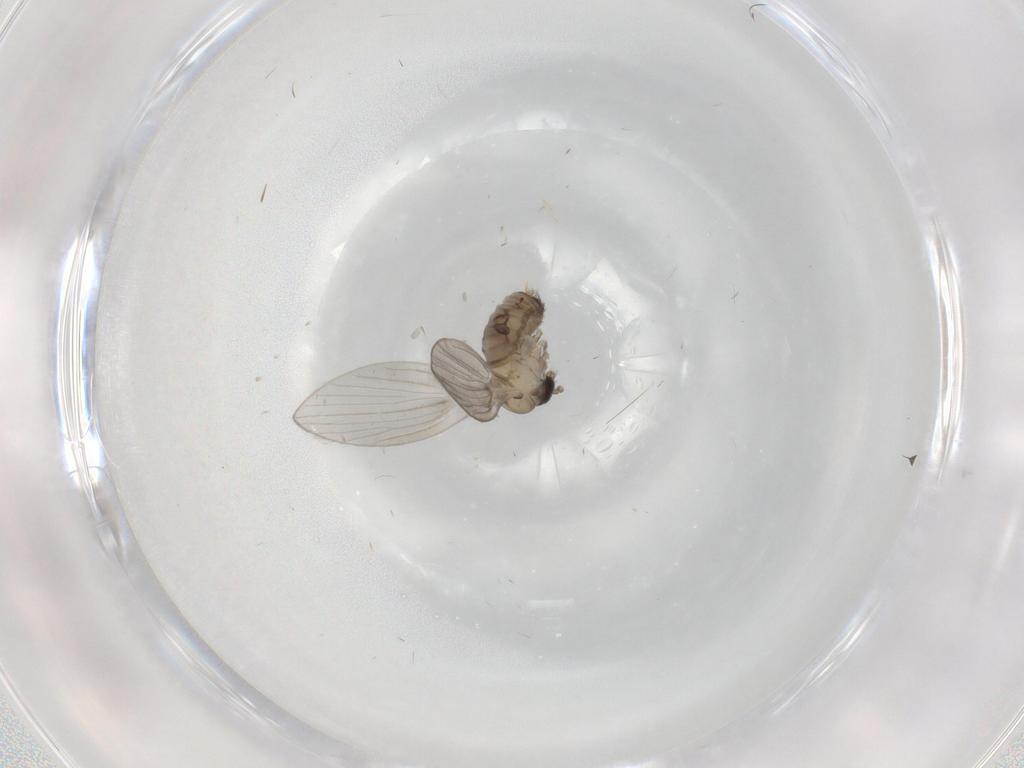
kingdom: Animalia
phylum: Arthropoda
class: Insecta
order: Diptera
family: Psychodidae
